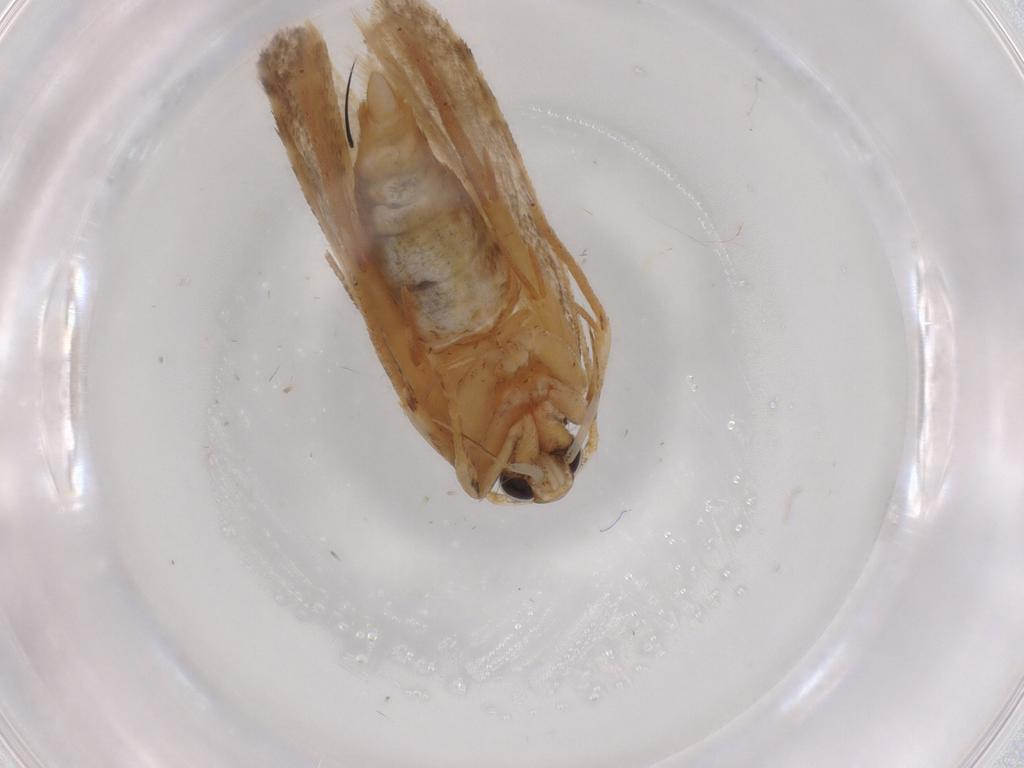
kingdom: Animalia
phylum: Arthropoda
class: Insecta
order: Lepidoptera
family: Autostichidae
